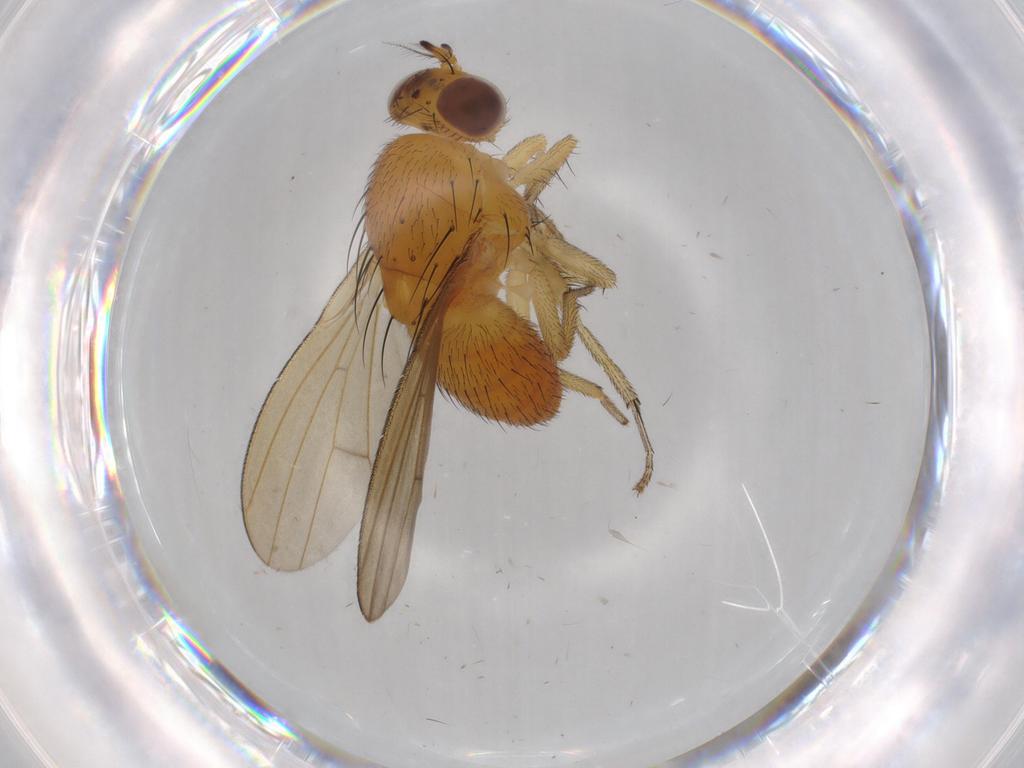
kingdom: Animalia
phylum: Arthropoda
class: Insecta
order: Diptera
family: Lauxaniidae
